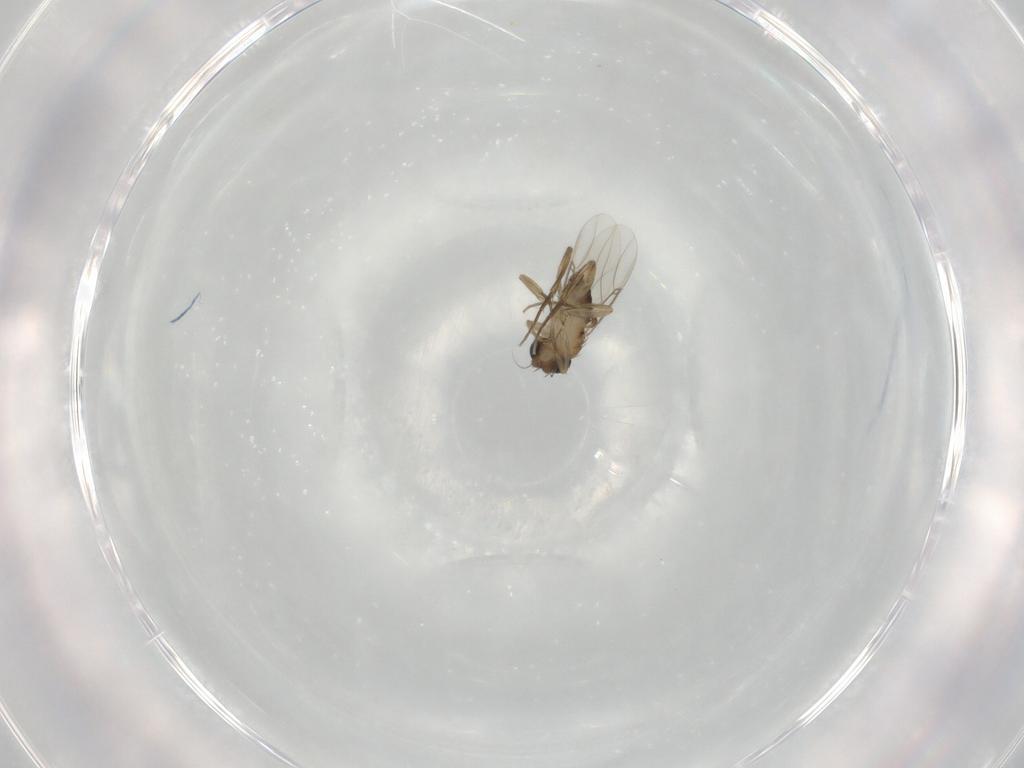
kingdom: Animalia
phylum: Arthropoda
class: Insecta
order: Diptera
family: Phoridae
